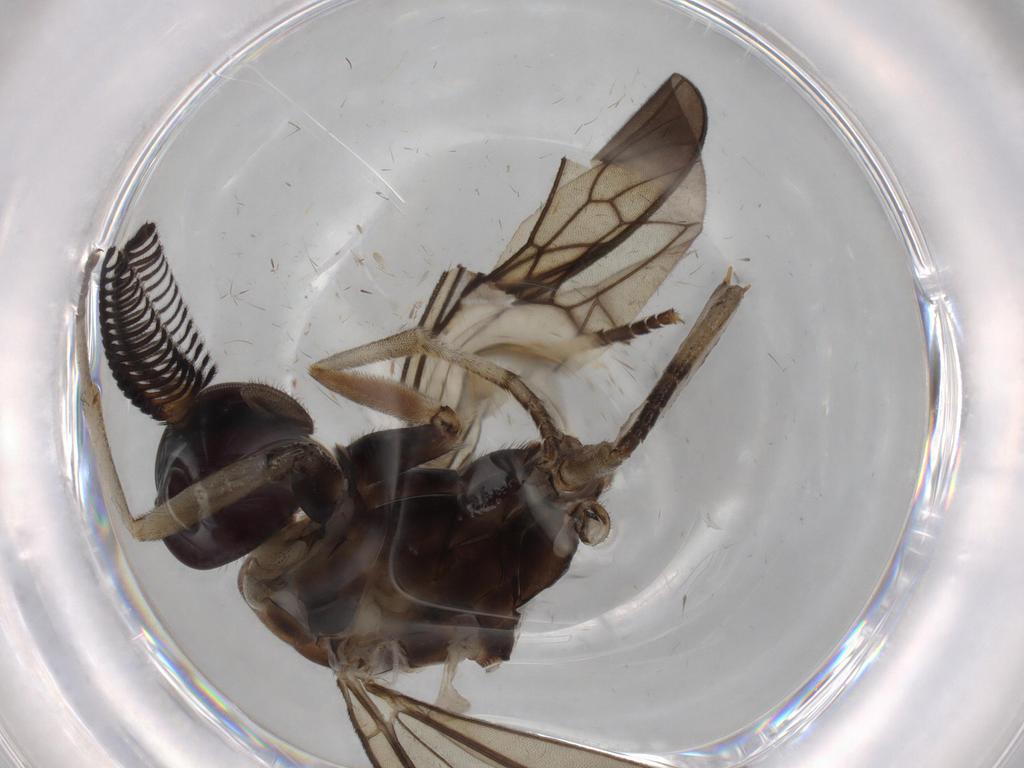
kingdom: Animalia
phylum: Arthropoda
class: Insecta
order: Diptera
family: Xylophagidae
